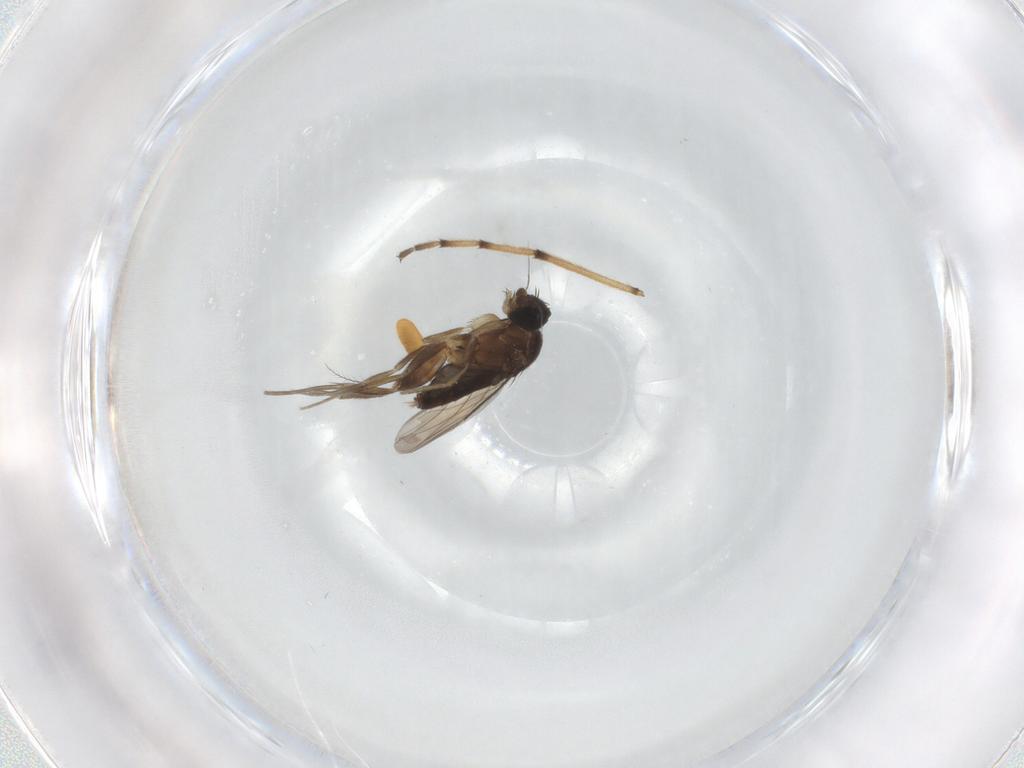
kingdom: Animalia
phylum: Arthropoda
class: Insecta
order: Diptera
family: Phoridae
